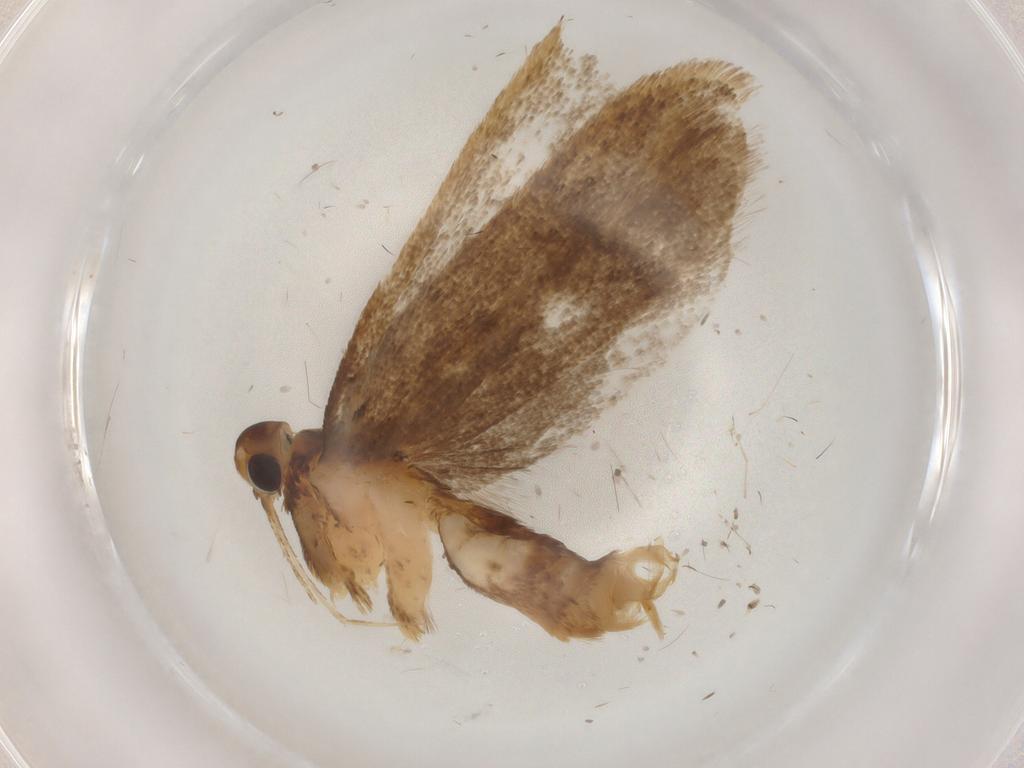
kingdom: Animalia
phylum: Arthropoda
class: Insecta
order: Lepidoptera
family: Lecithoceridae
